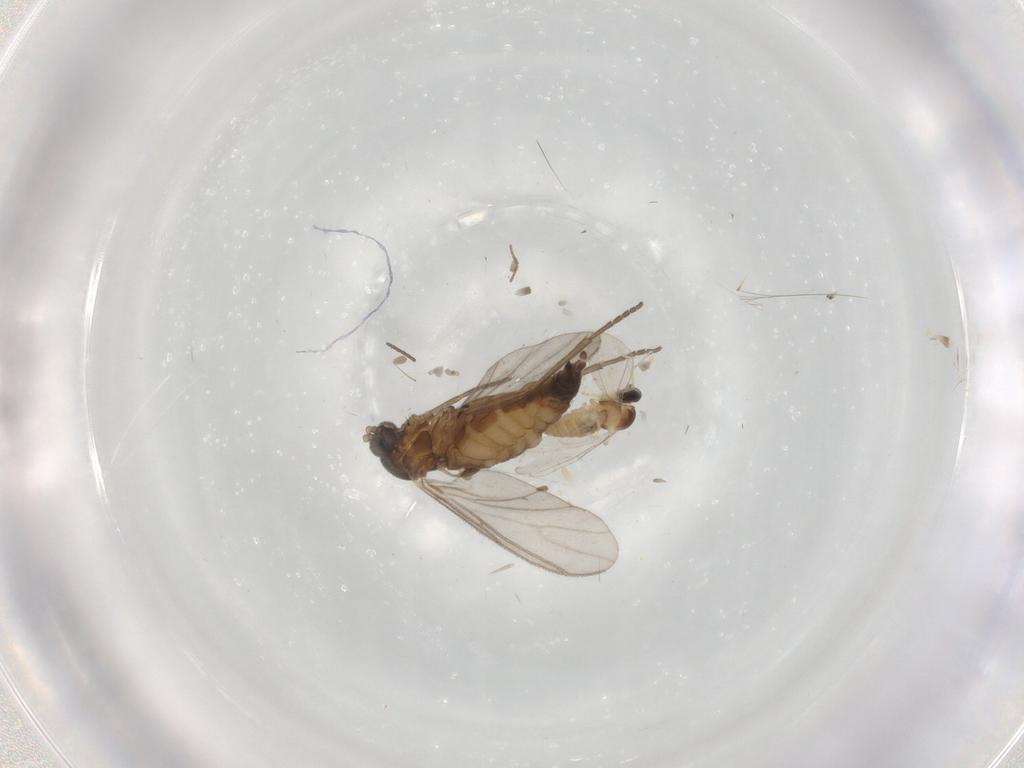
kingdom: Animalia
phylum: Arthropoda
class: Insecta
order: Diptera
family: Cecidomyiidae
